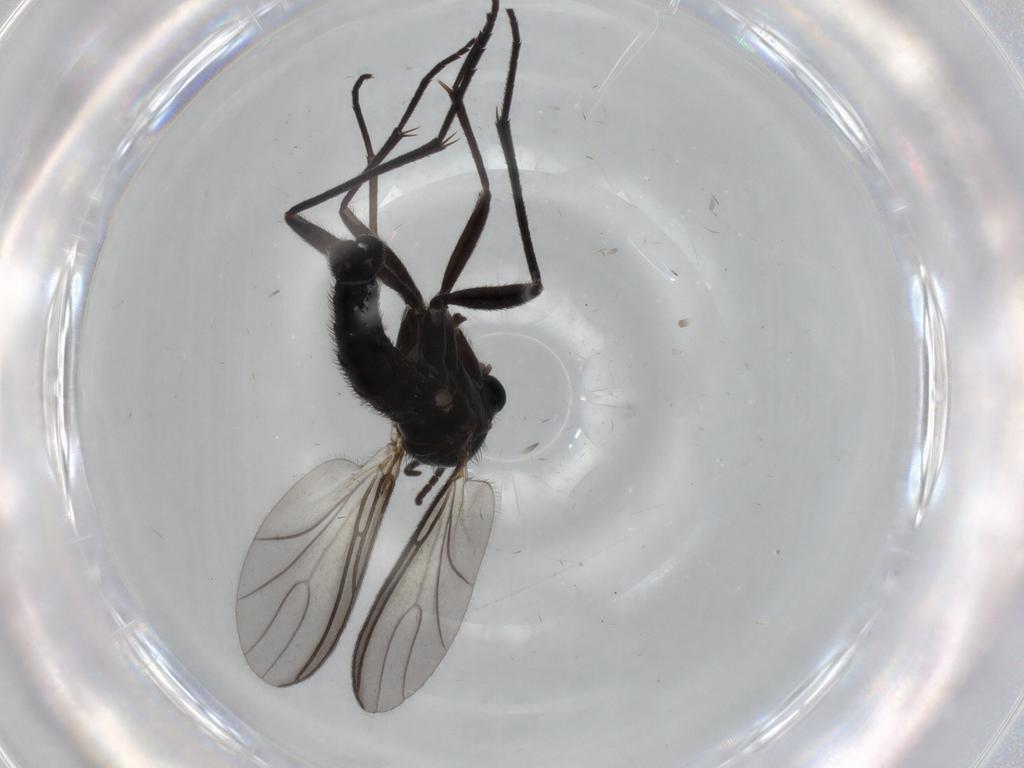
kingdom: Animalia
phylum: Arthropoda
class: Insecta
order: Diptera
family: Sciaridae
